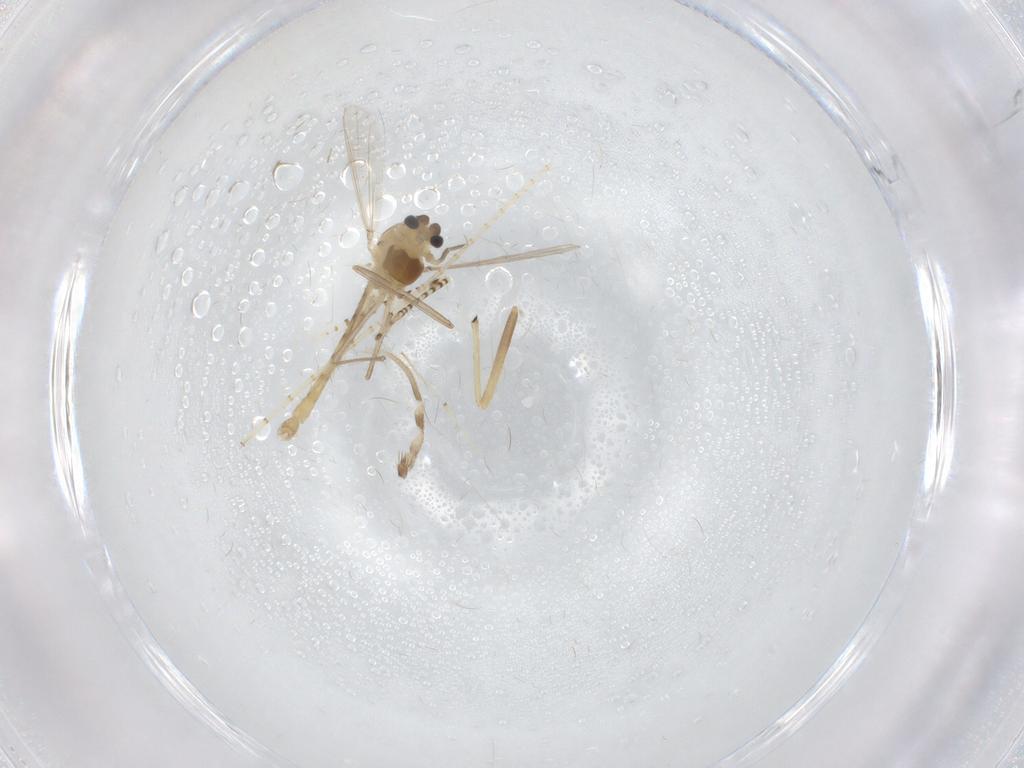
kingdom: Animalia
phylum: Arthropoda
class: Insecta
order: Diptera
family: Chironomidae
